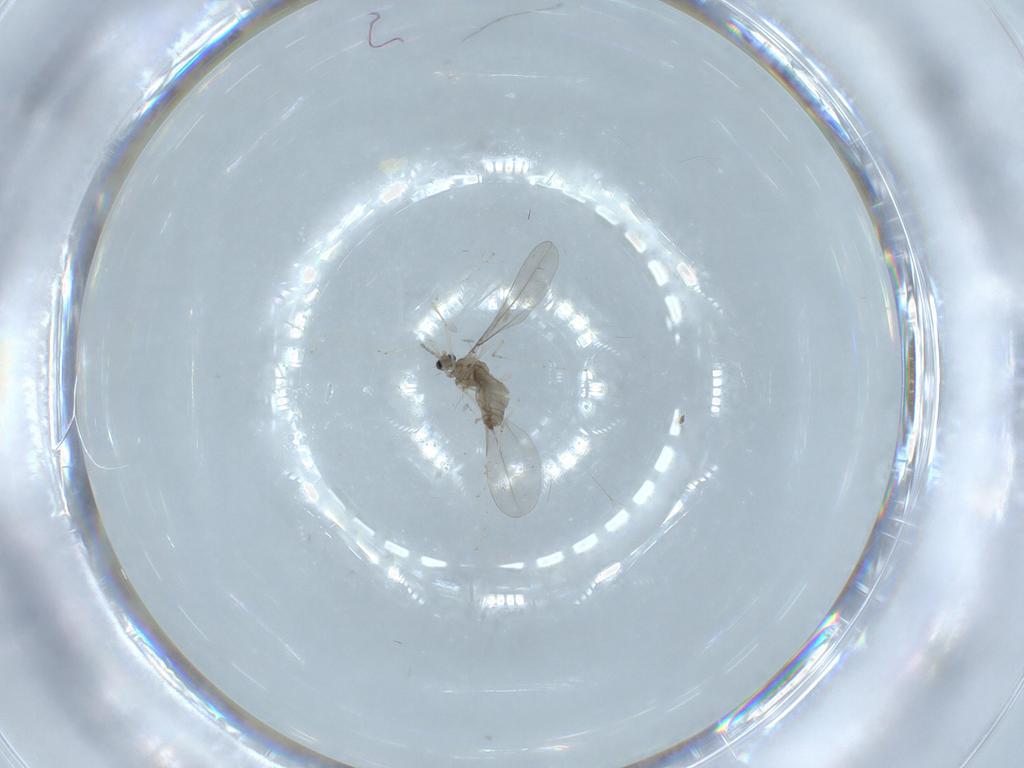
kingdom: Animalia
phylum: Arthropoda
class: Insecta
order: Diptera
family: Cecidomyiidae
